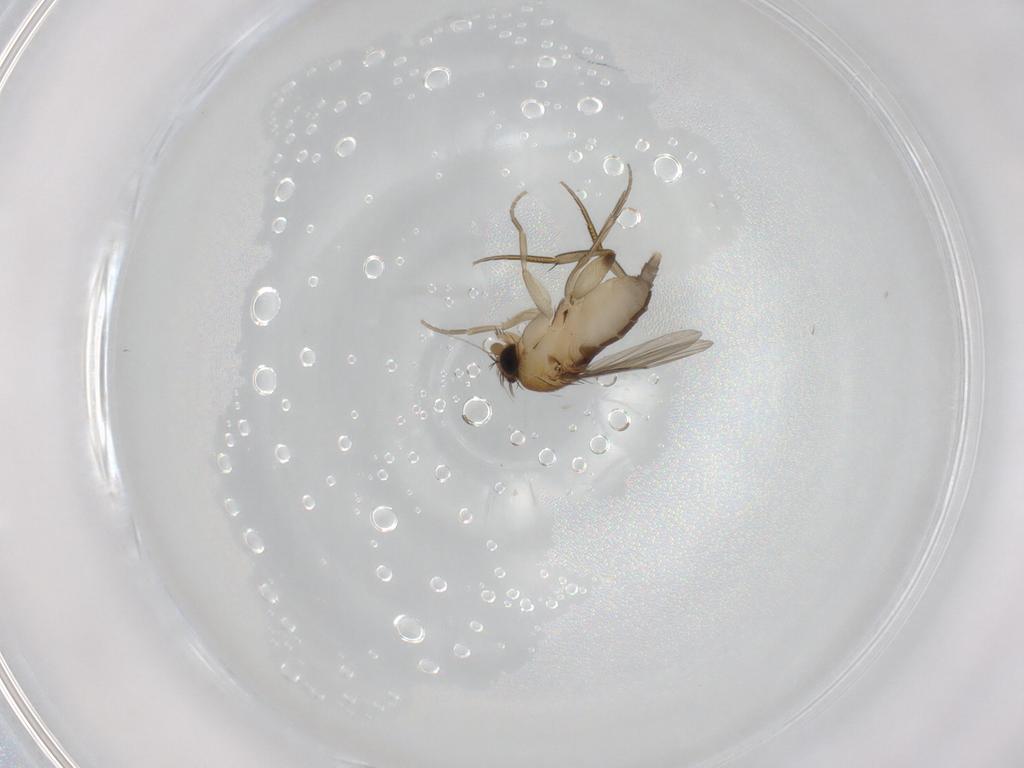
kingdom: Animalia
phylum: Arthropoda
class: Insecta
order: Diptera
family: Phoridae
